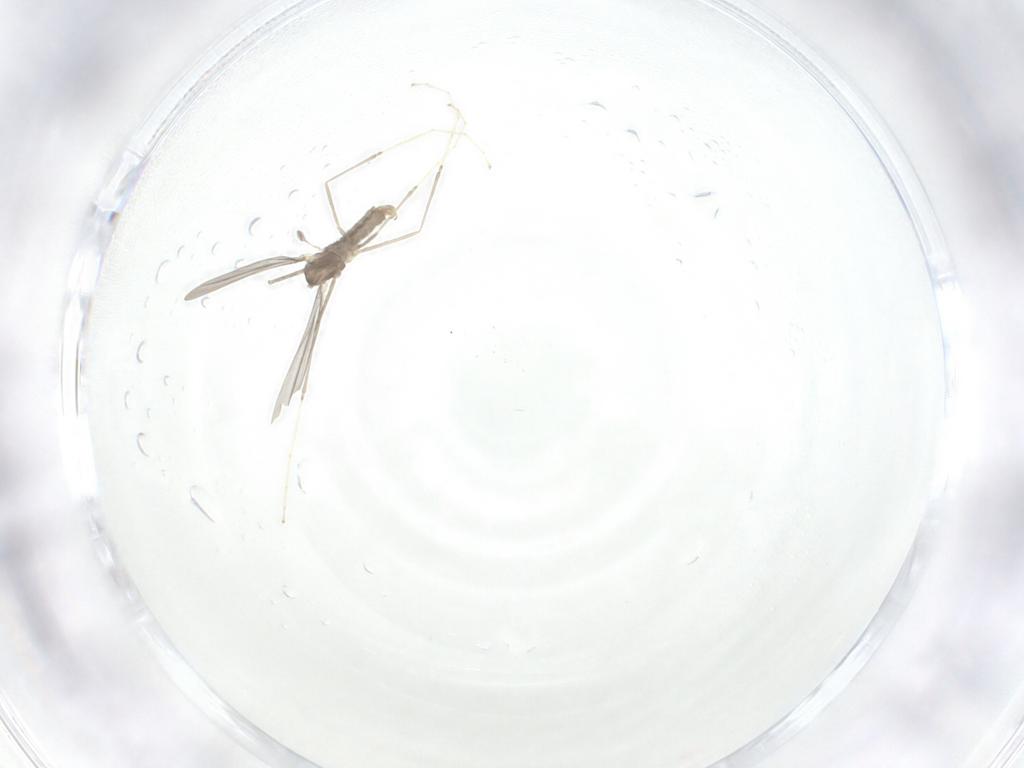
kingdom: Animalia
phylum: Arthropoda
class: Insecta
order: Diptera
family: Cecidomyiidae
